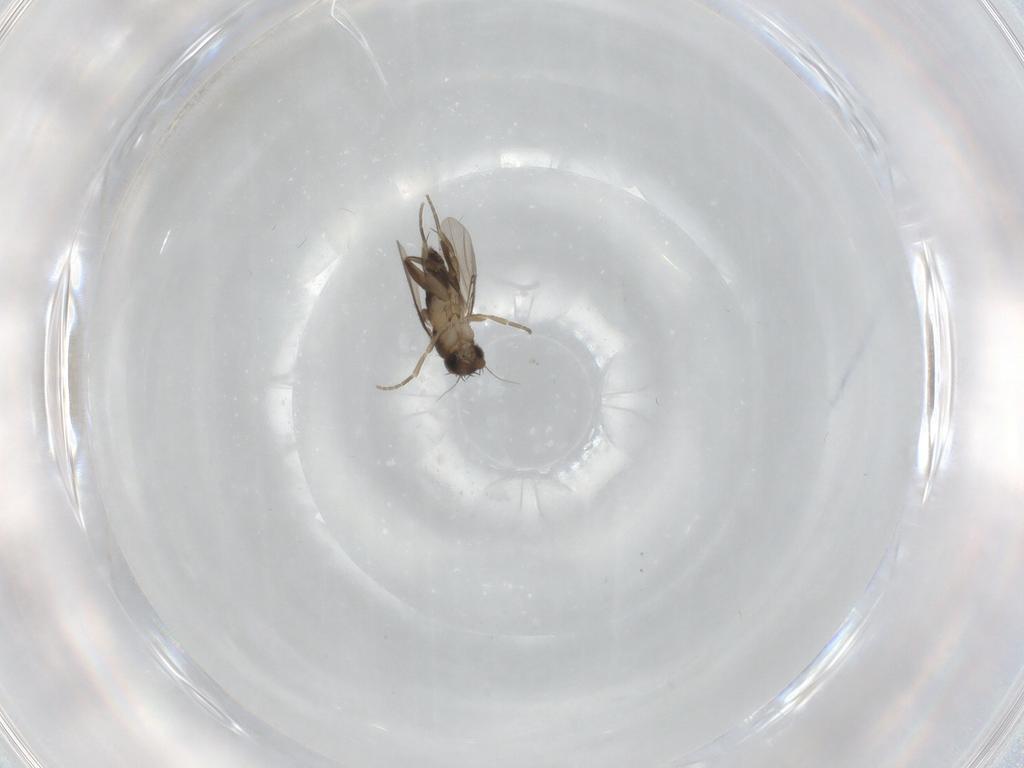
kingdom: Animalia
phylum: Arthropoda
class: Insecta
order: Diptera
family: Phoridae
